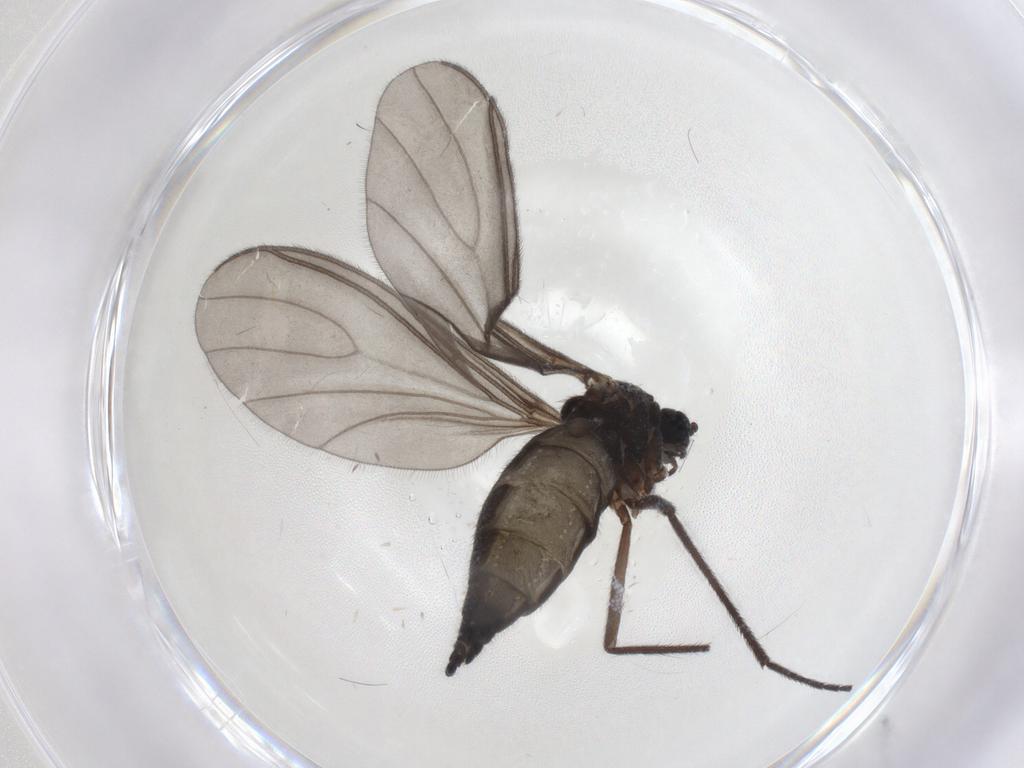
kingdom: Animalia
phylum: Arthropoda
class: Insecta
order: Diptera
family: Sciaridae
